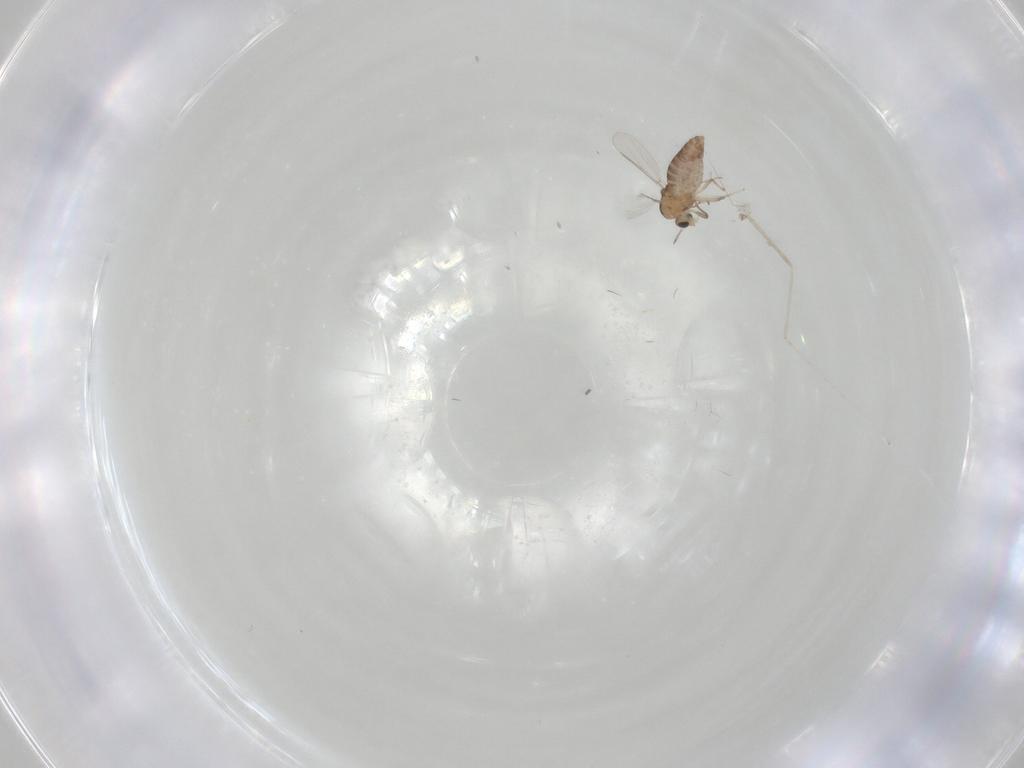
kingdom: Animalia
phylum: Arthropoda
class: Insecta
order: Diptera
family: Chironomidae
